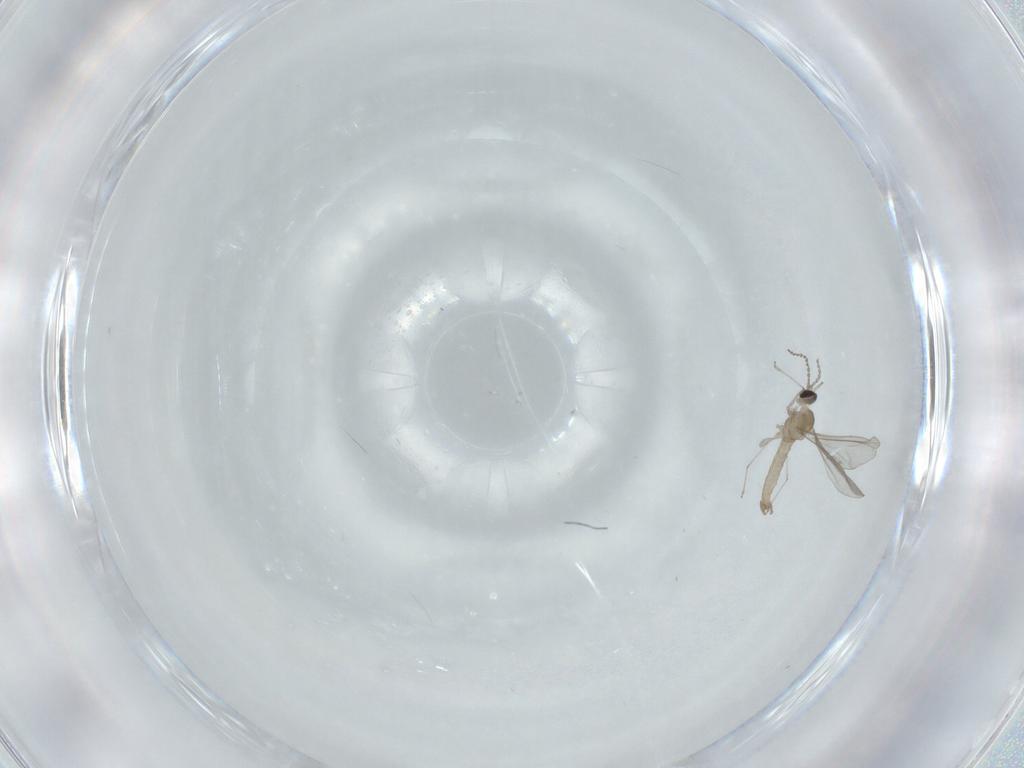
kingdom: Animalia
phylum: Arthropoda
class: Insecta
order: Diptera
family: Cecidomyiidae
